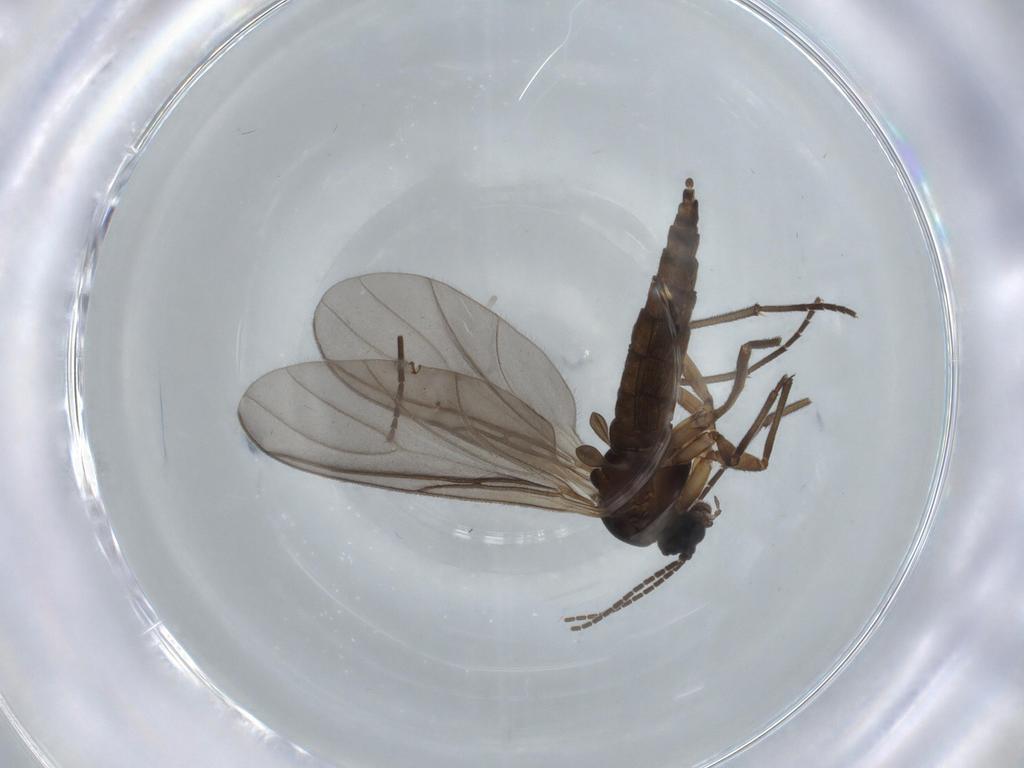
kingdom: Animalia
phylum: Arthropoda
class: Insecta
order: Diptera
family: Sciaridae
